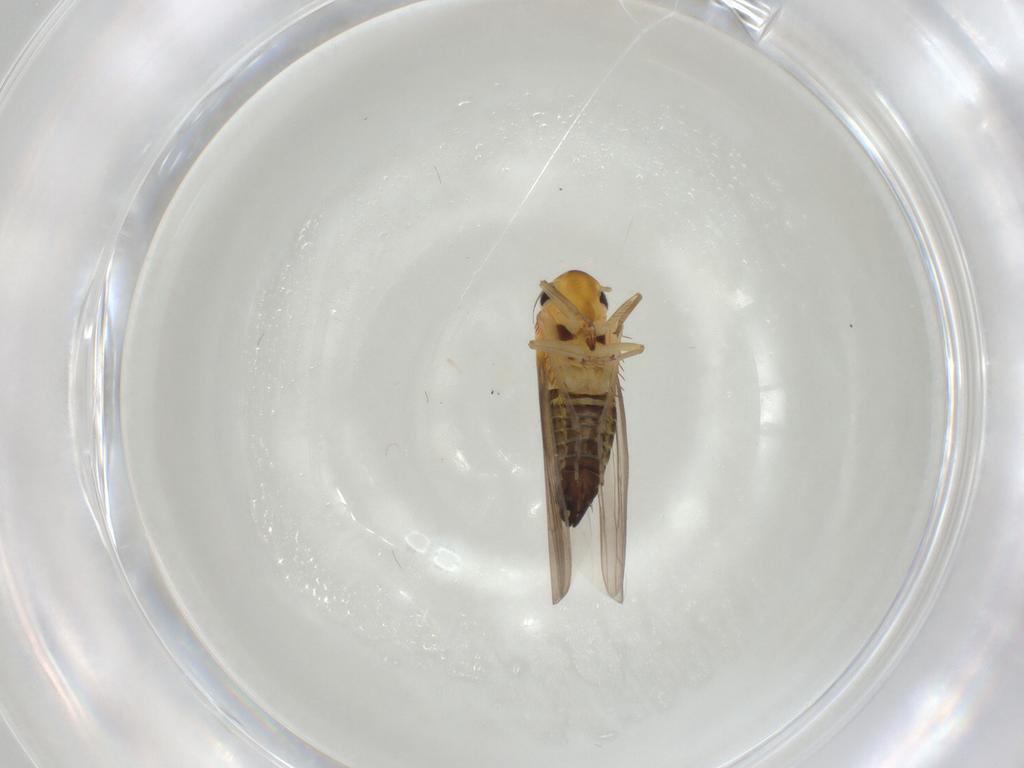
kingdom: Animalia
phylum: Arthropoda
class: Insecta
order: Hemiptera
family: Cicadellidae
